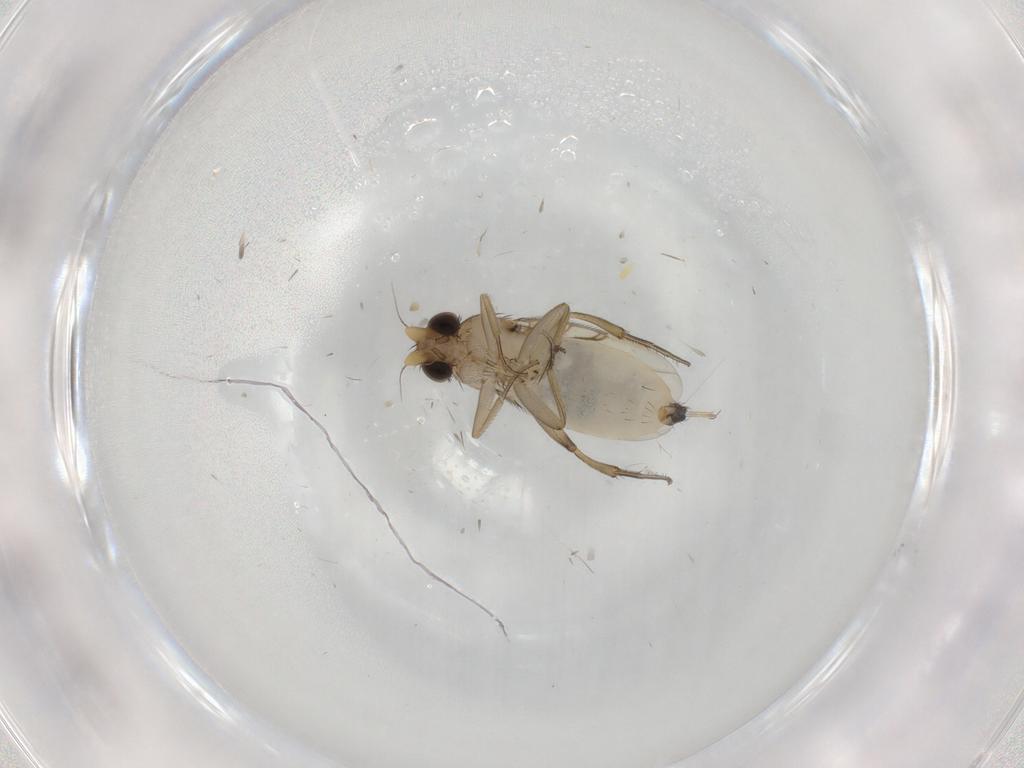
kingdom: Animalia
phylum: Arthropoda
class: Insecta
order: Diptera
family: Phoridae
